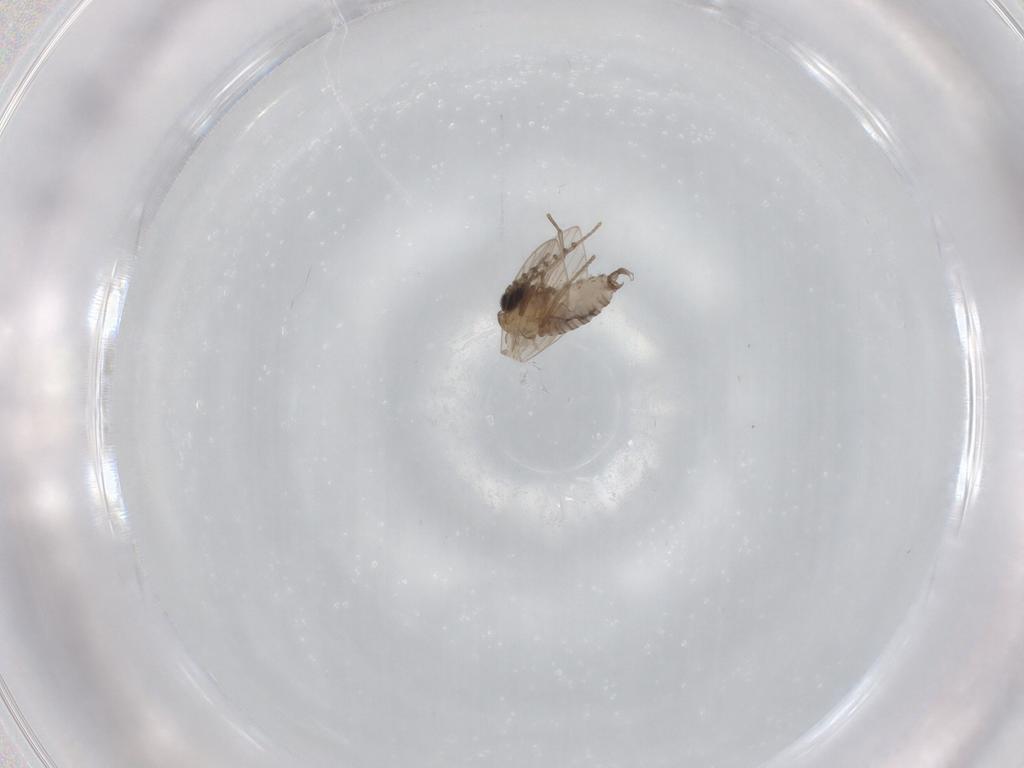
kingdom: Animalia
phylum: Arthropoda
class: Insecta
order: Diptera
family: Psychodidae
